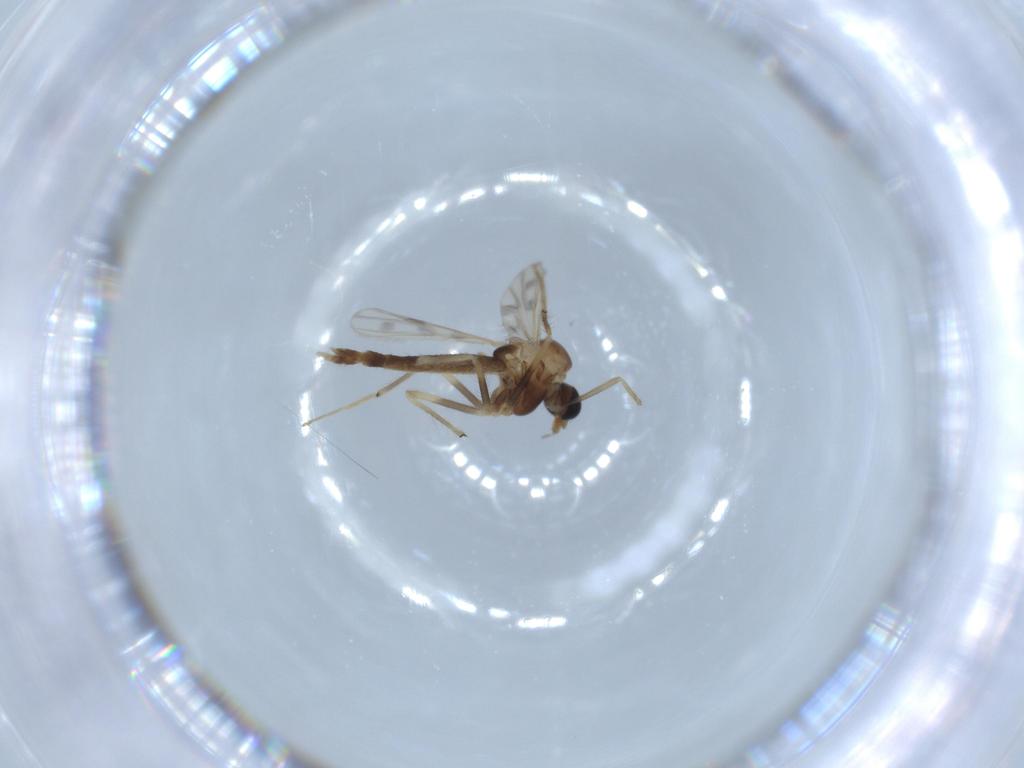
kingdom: Animalia
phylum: Arthropoda
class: Insecta
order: Diptera
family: Chironomidae
